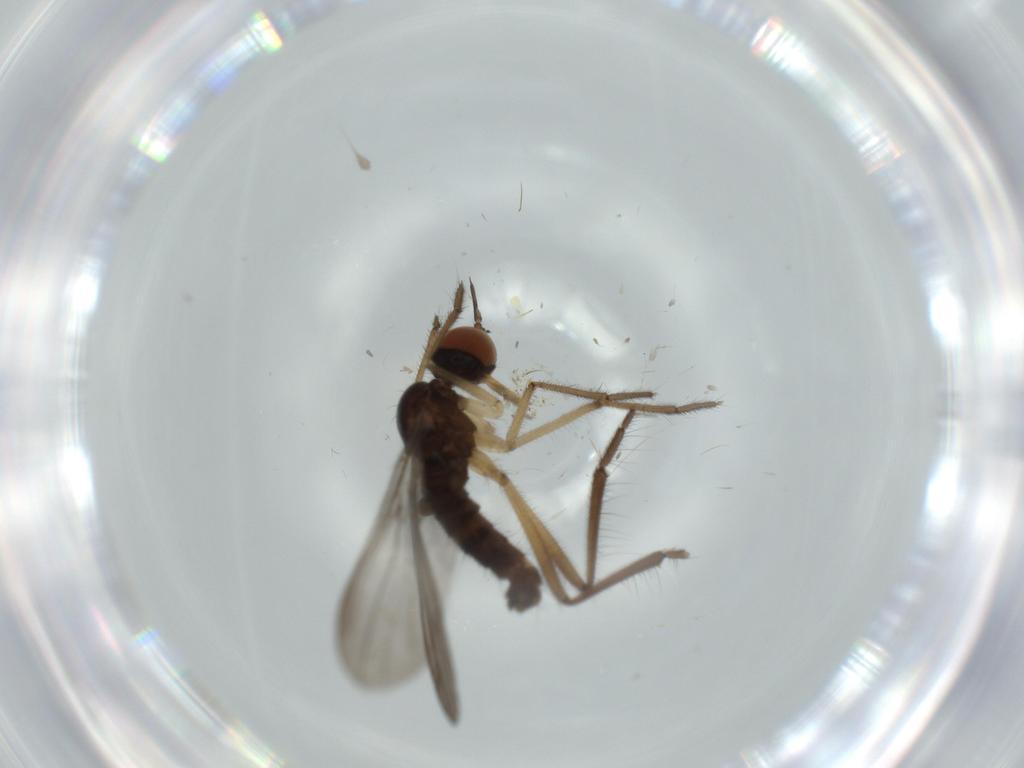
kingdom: Animalia
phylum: Arthropoda
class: Insecta
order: Diptera
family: Empididae
